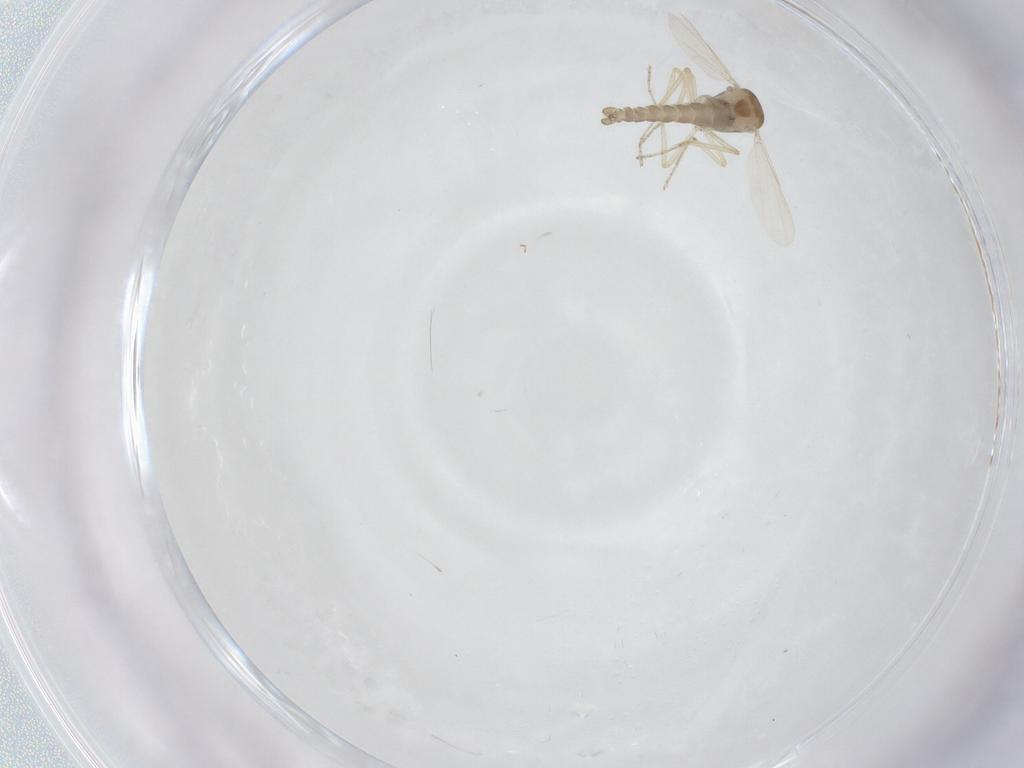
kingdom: Animalia
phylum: Arthropoda
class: Insecta
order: Diptera
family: Ceratopogonidae
